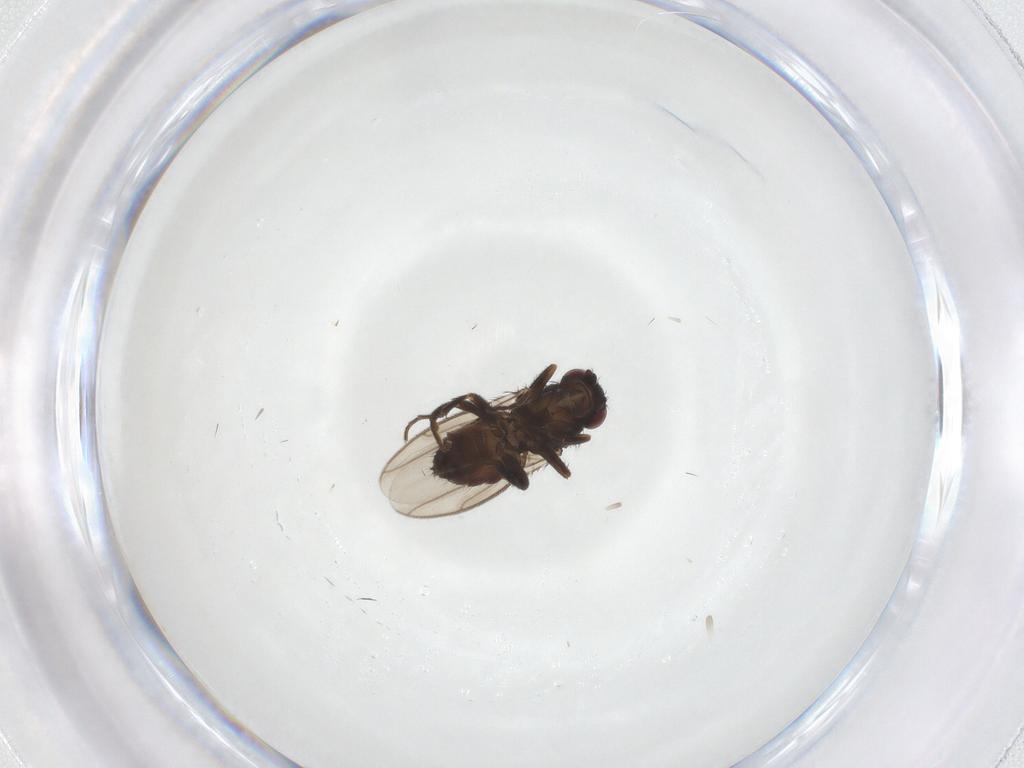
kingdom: Animalia
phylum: Arthropoda
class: Insecta
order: Diptera
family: Sphaeroceridae
